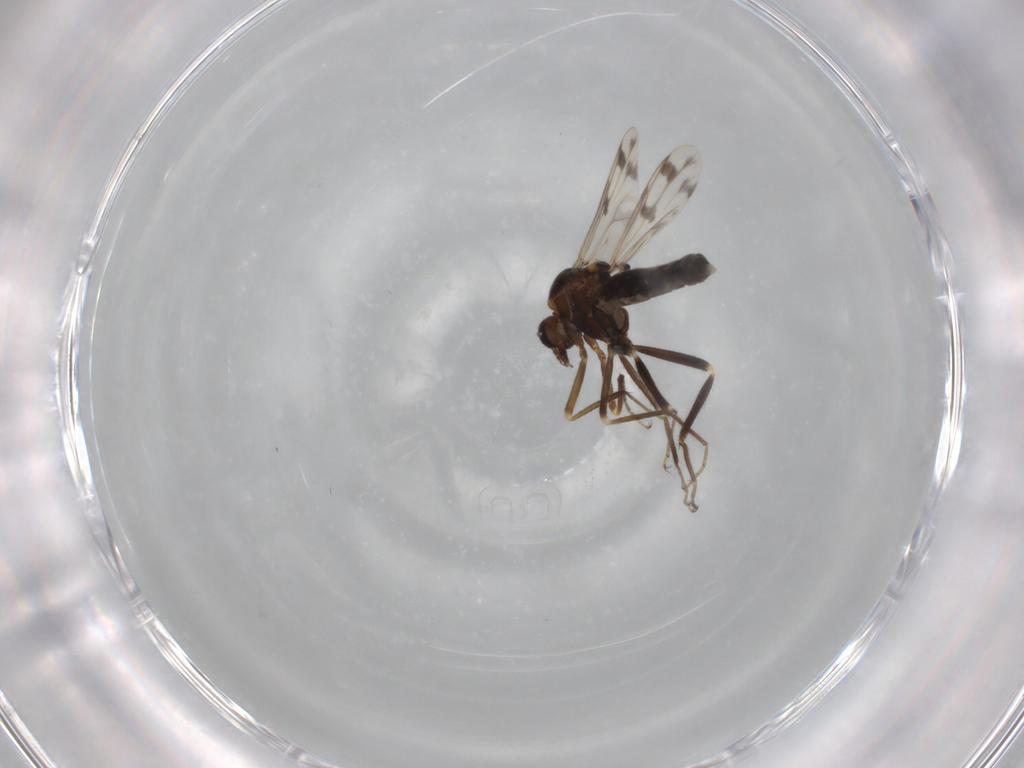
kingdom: Animalia
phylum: Arthropoda
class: Insecta
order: Diptera
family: Ceratopogonidae
